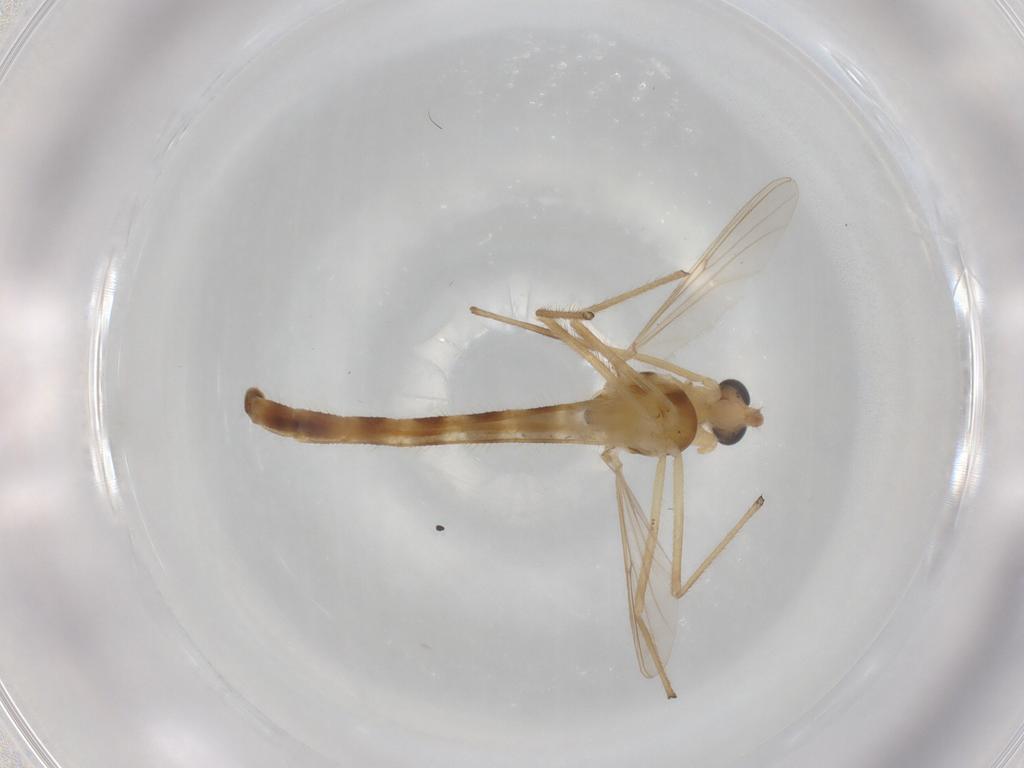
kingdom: Animalia
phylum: Arthropoda
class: Insecta
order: Diptera
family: Chironomidae
